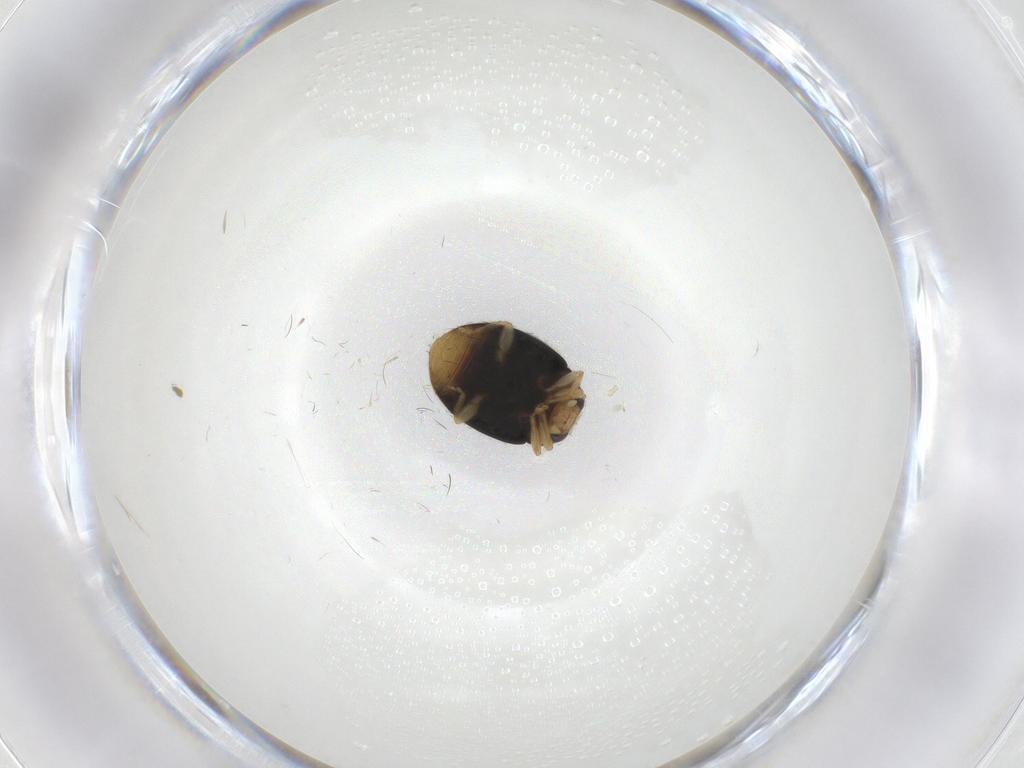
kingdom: Animalia
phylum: Arthropoda
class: Insecta
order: Coleoptera
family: Coccinellidae
